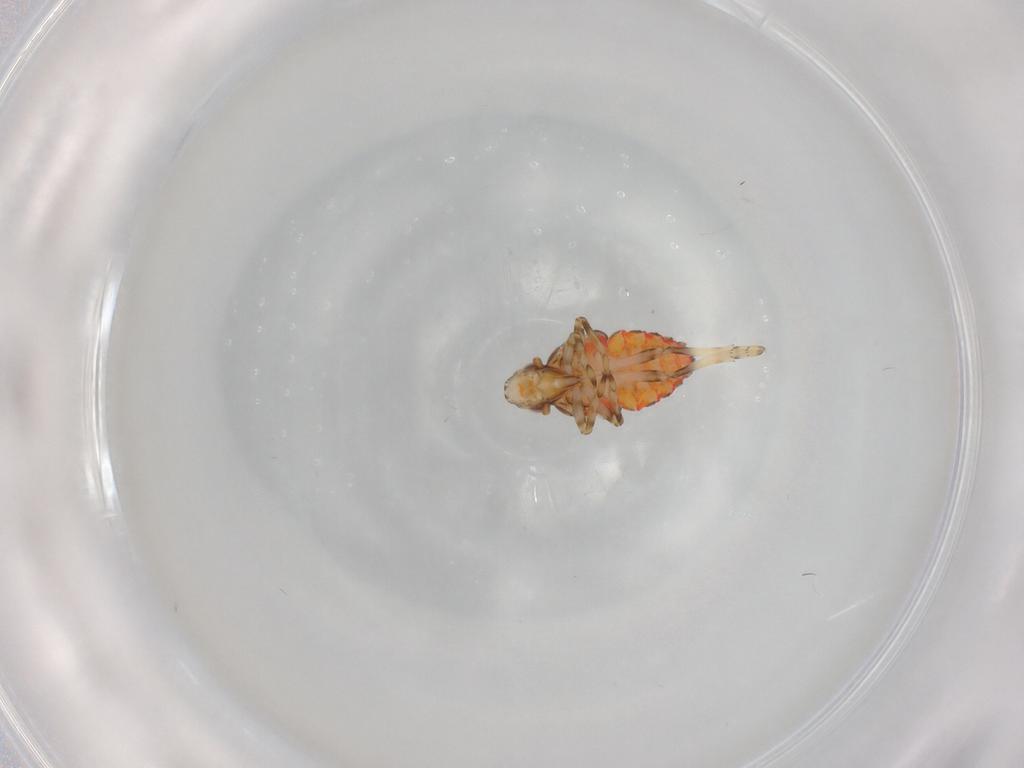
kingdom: Animalia
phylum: Arthropoda
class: Insecta
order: Hemiptera
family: Tropiduchidae
